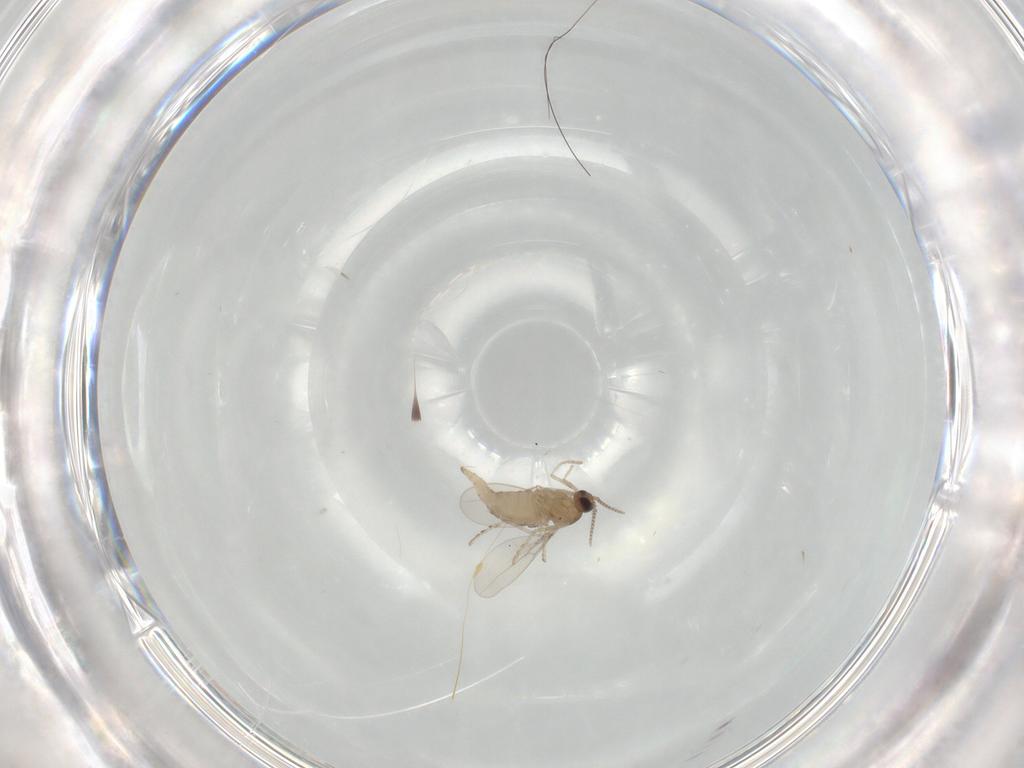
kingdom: Animalia
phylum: Arthropoda
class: Insecta
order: Diptera
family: Cecidomyiidae
